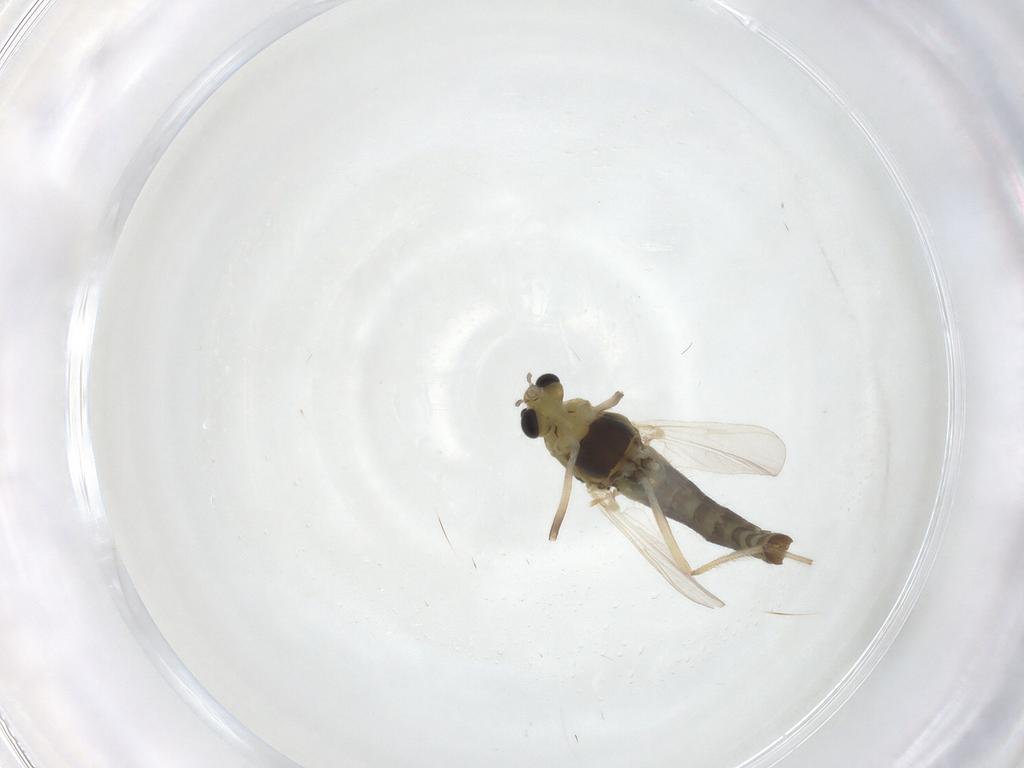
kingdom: Animalia
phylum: Arthropoda
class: Insecta
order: Diptera
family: Chironomidae
